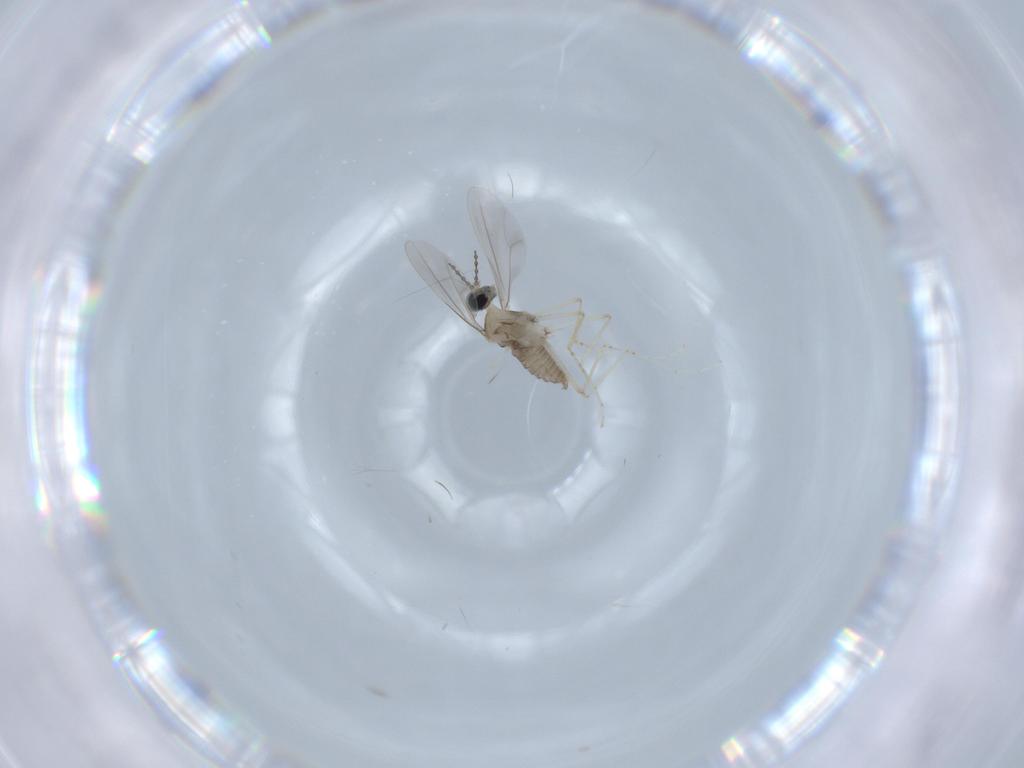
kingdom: Animalia
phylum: Arthropoda
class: Insecta
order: Diptera
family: Cecidomyiidae
